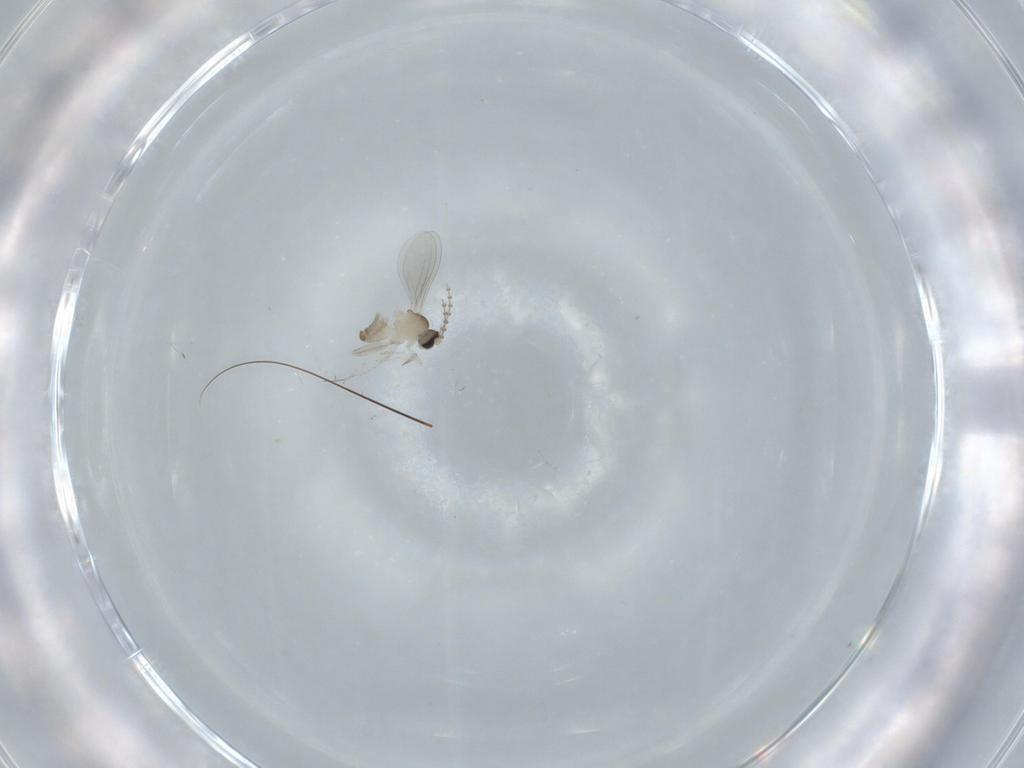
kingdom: Animalia
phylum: Arthropoda
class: Insecta
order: Diptera
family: Cecidomyiidae
